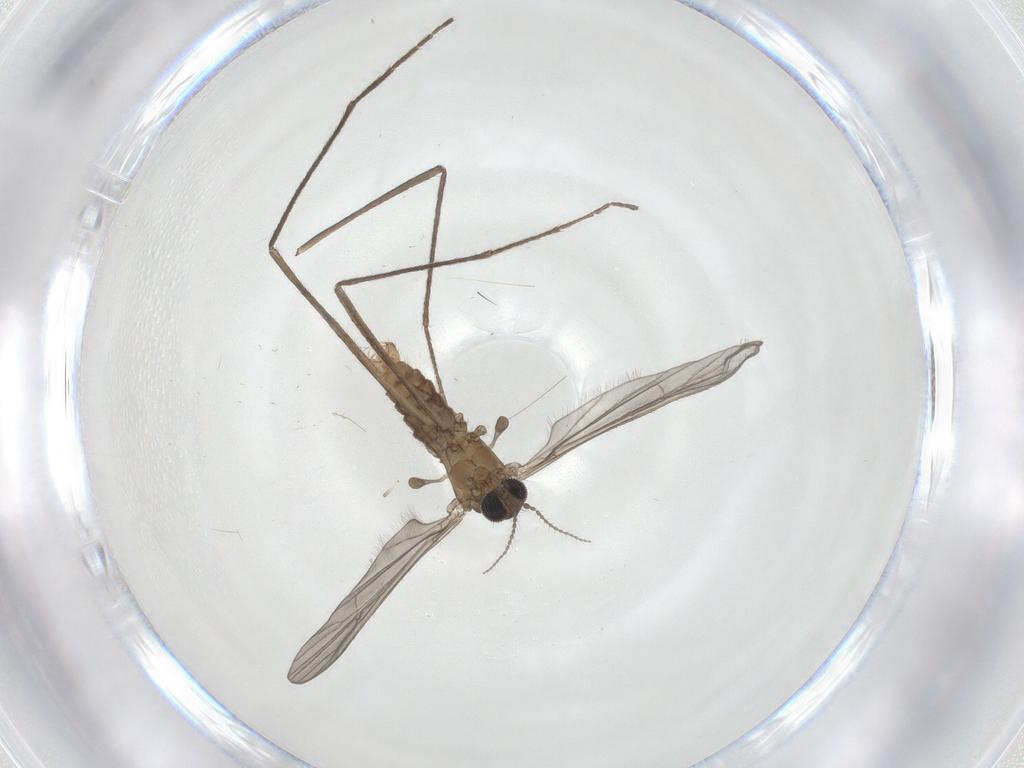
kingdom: Animalia
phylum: Arthropoda
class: Insecta
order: Diptera
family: Limoniidae
